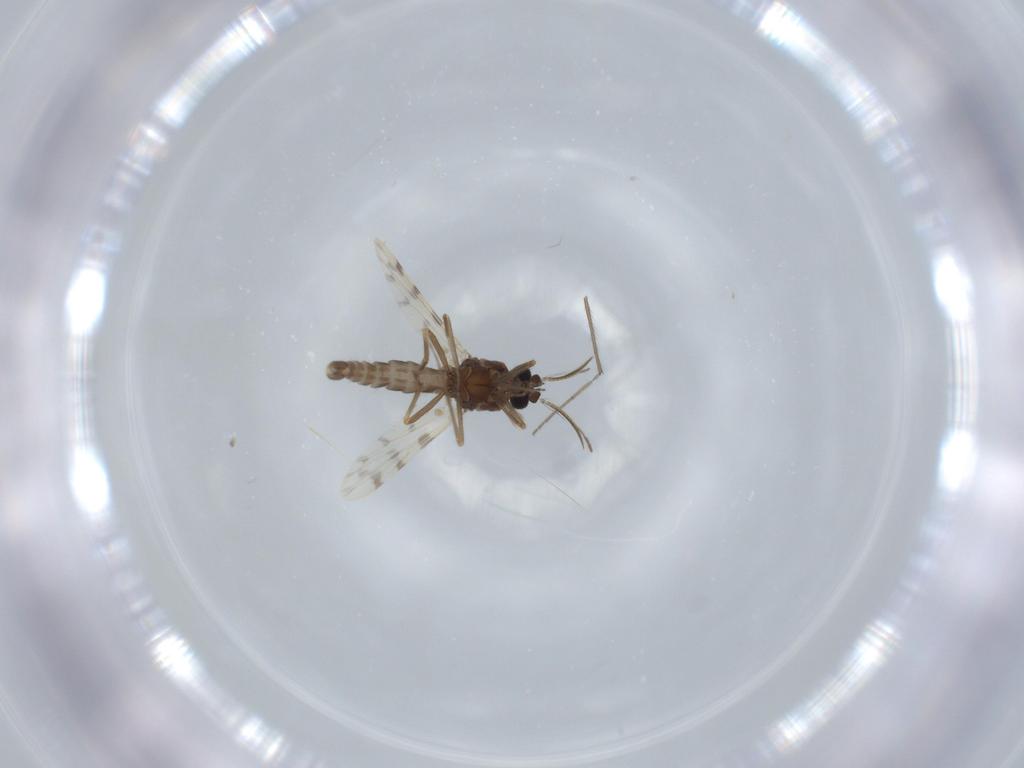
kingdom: Animalia
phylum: Arthropoda
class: Insecta
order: Diptera
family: Ceratopogonidae
